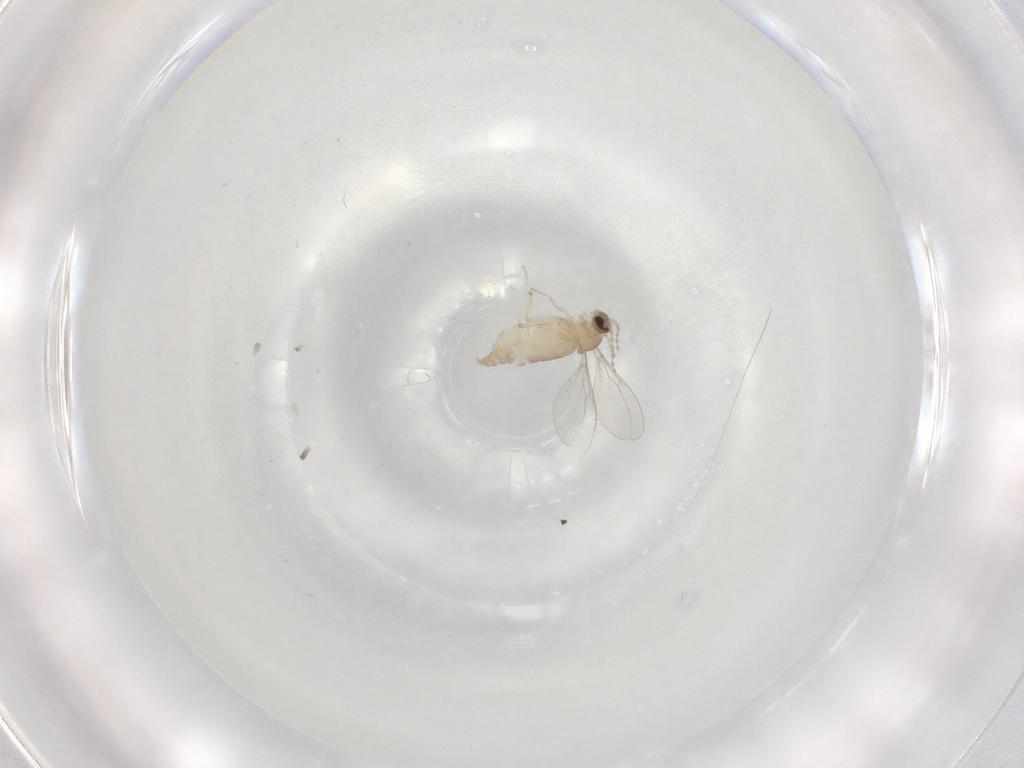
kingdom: Animalia
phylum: Arthropoda
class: Insecta
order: Diptera
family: Cecidomyiidae
